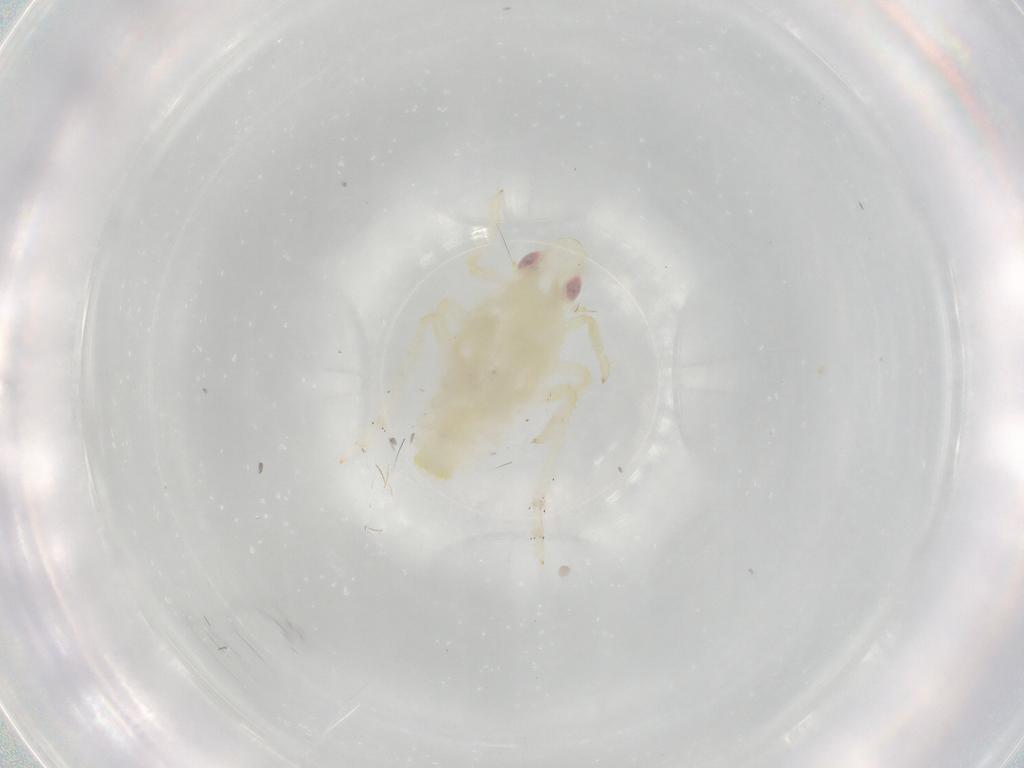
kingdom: Animalia
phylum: Arthropoda
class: Insecta
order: Hemiptera
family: Tropiduchidae
